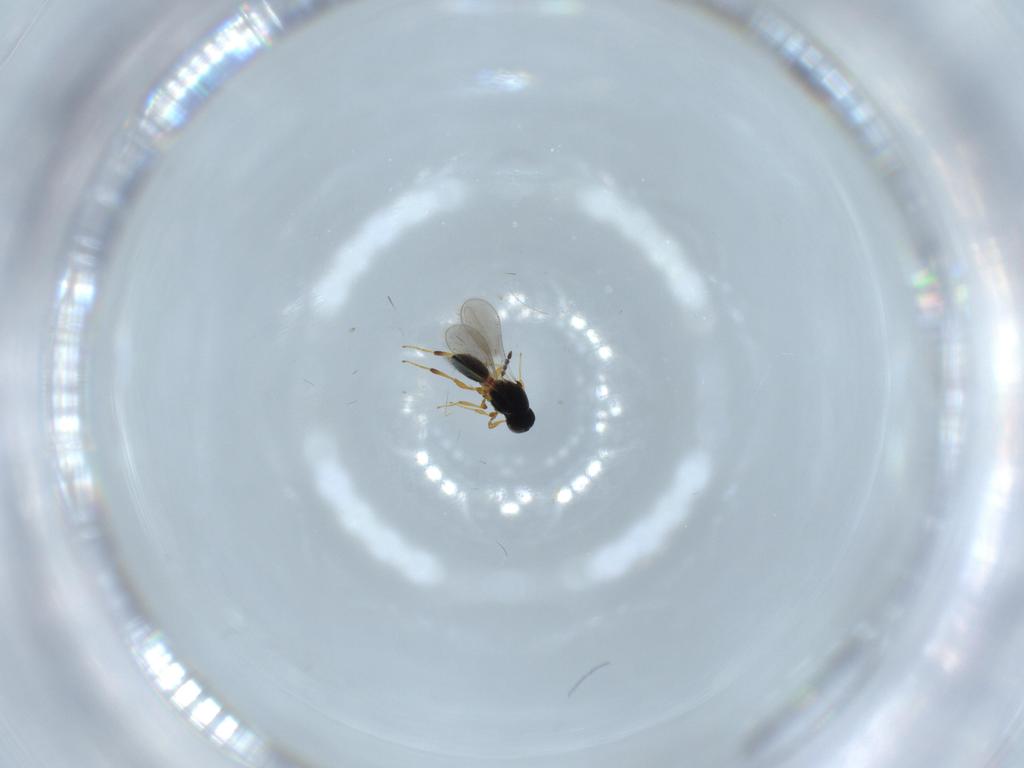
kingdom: Animalia
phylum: Arthropoda
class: Insecta
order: Hymenoptera
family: Platygastridae
